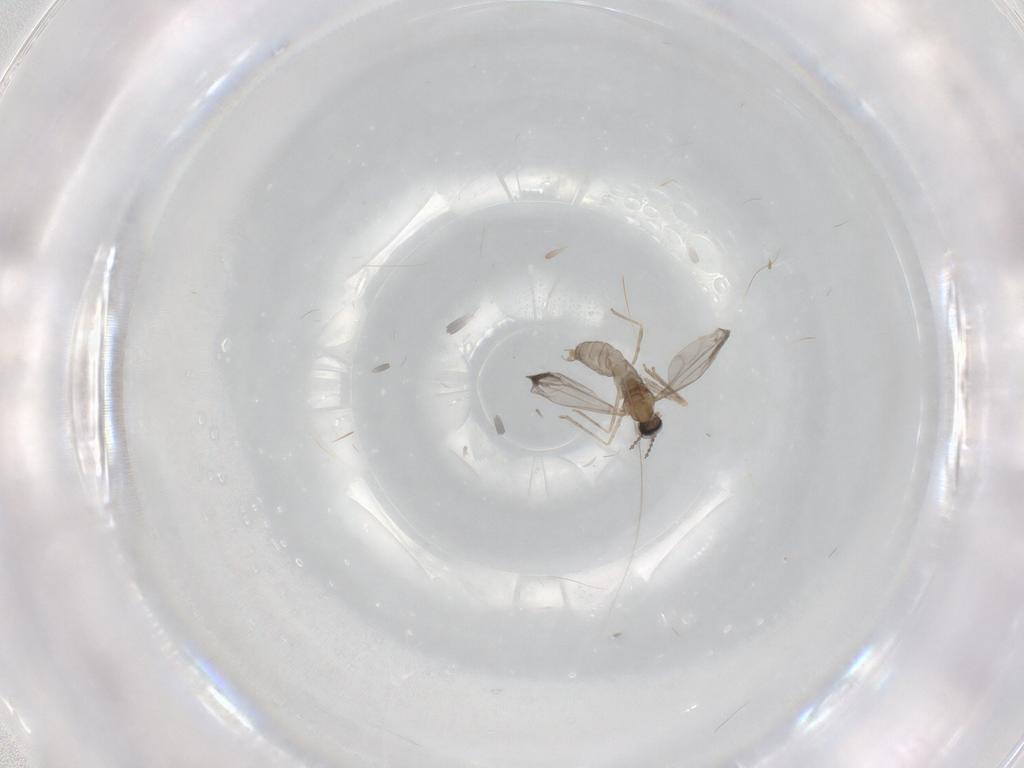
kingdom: Animalia
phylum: Arthropoda
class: Insecta
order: Diptera
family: Cecidomyiidae
